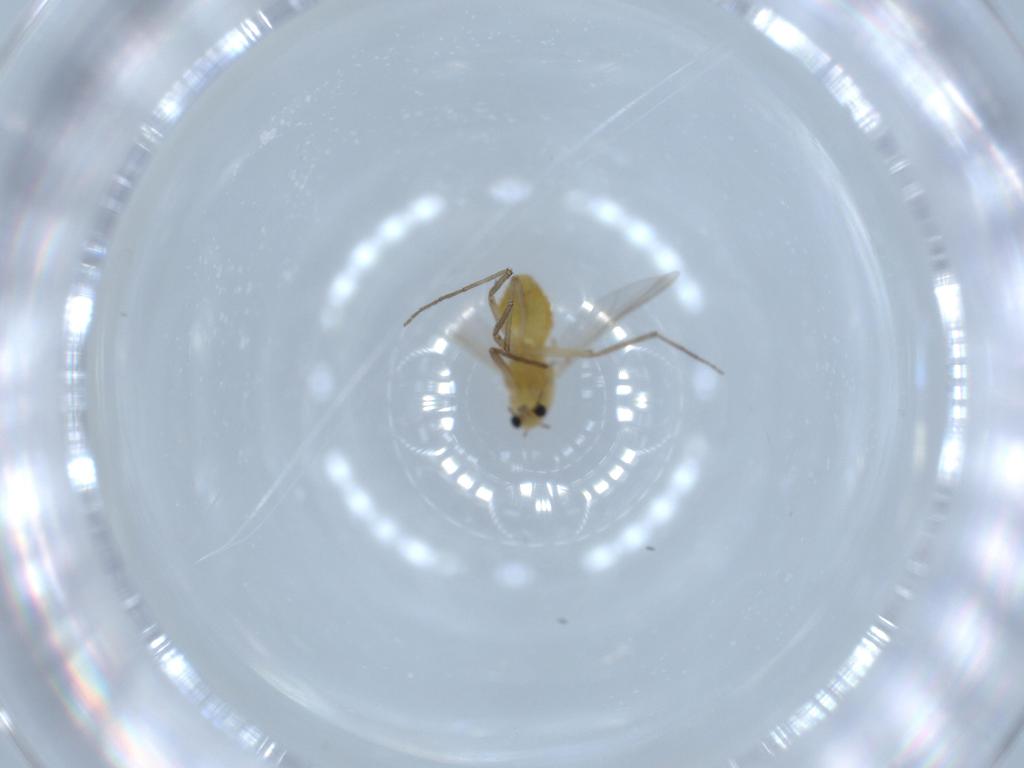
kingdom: Animalia
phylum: Arthropoda
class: Insecta
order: Diptera
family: Chironomidae
